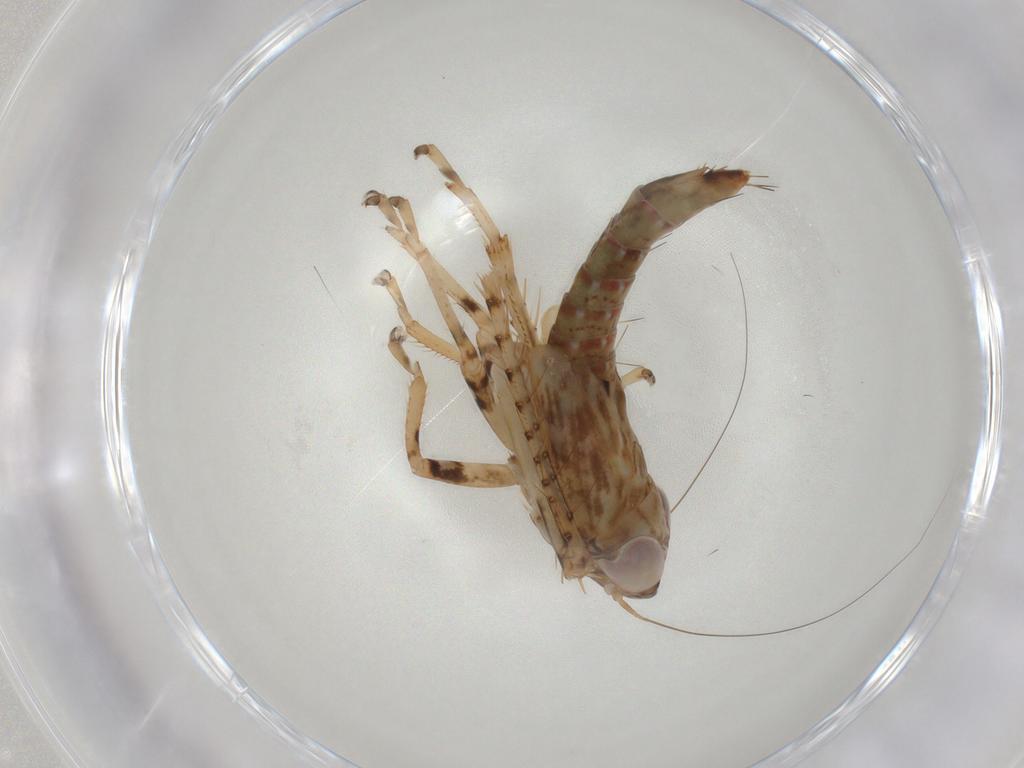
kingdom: Animalia
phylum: Arthropoda
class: Insecta
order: Hemiptera
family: Cicadellidae
